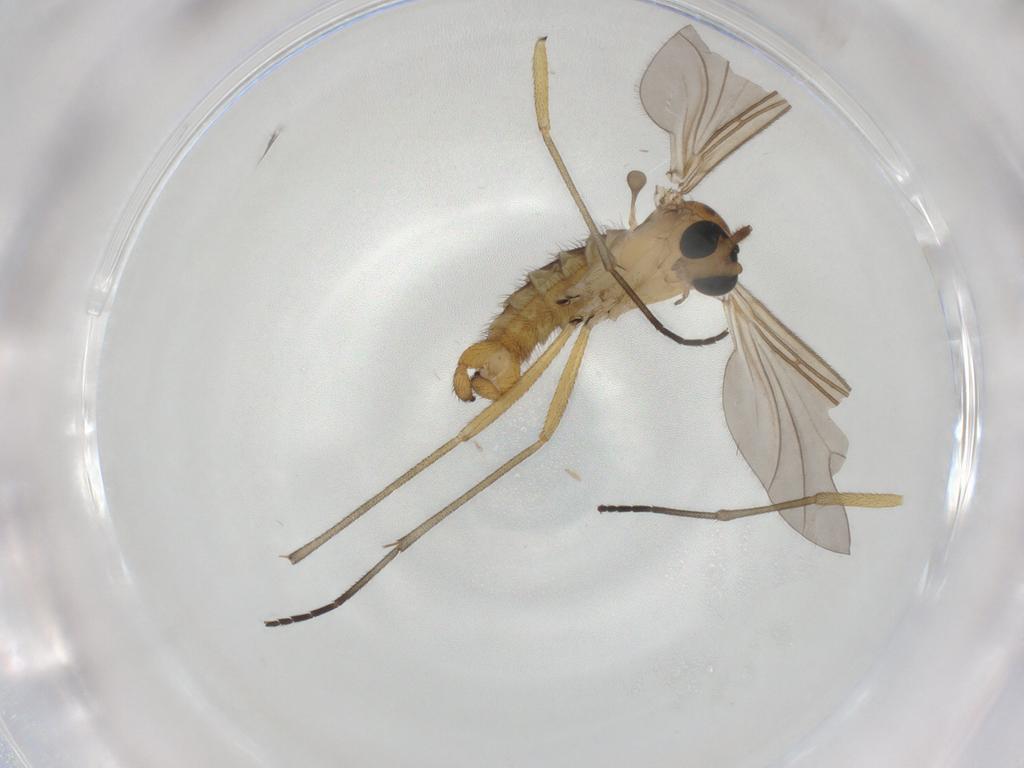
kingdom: Animalia
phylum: Arthropoda
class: Insecta
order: Diptera
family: Sciaridae
